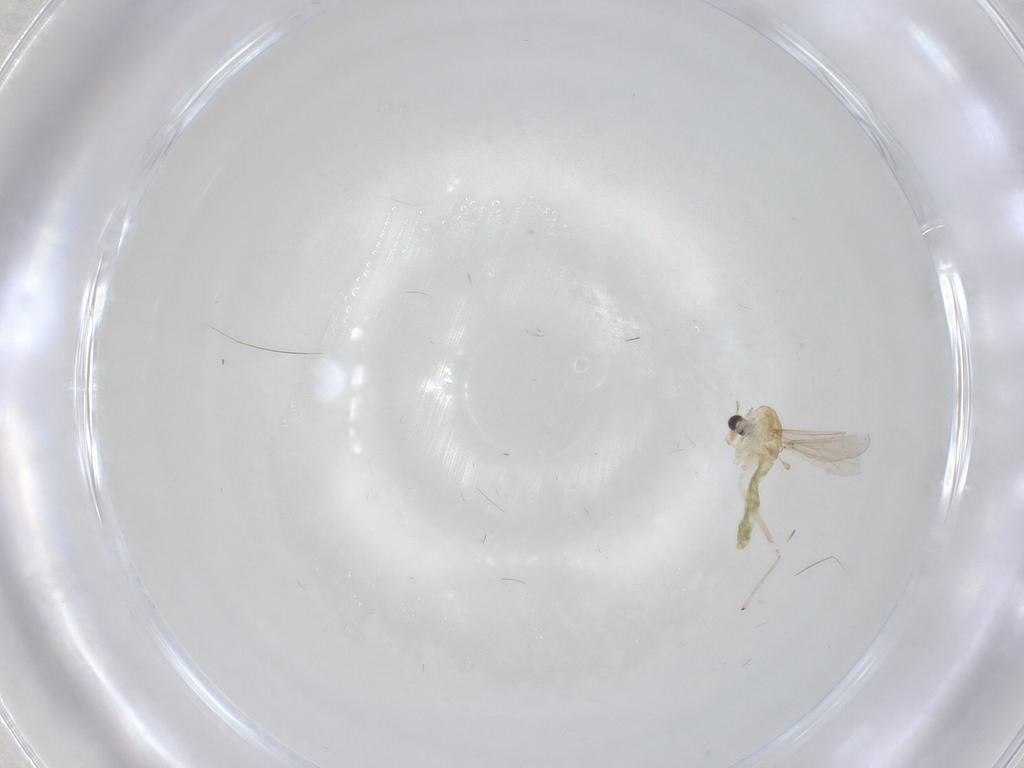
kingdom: Animalia
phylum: Arthropoda
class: Insecta
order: Diptera
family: Chironomidae
